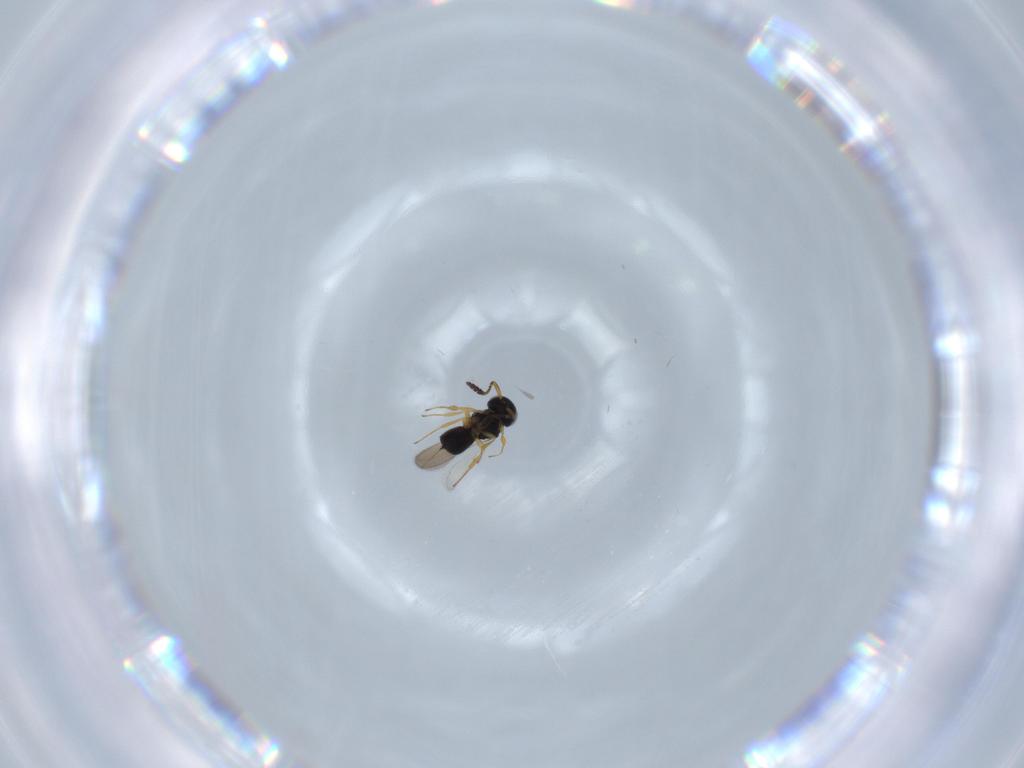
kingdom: Animalia
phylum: Arthropoda
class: Insecta
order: Hymenoptera
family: Scelionidae
